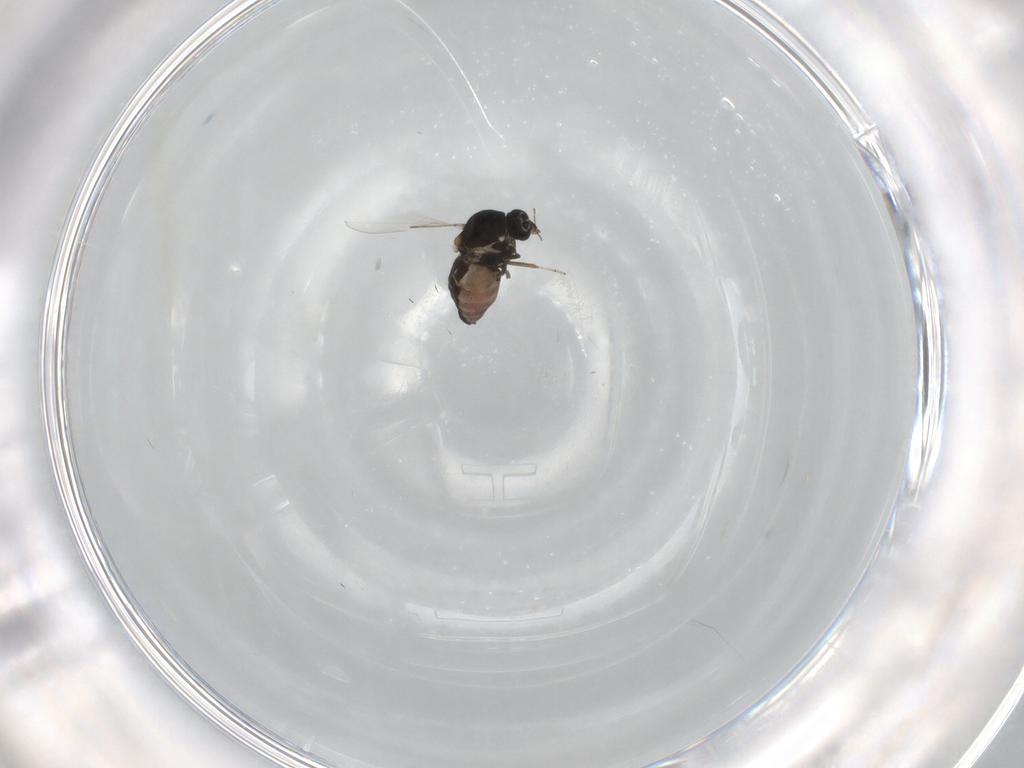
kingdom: Animalia
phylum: Arthropoda
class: Insecta
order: Diptera
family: Ceratopogonidae
